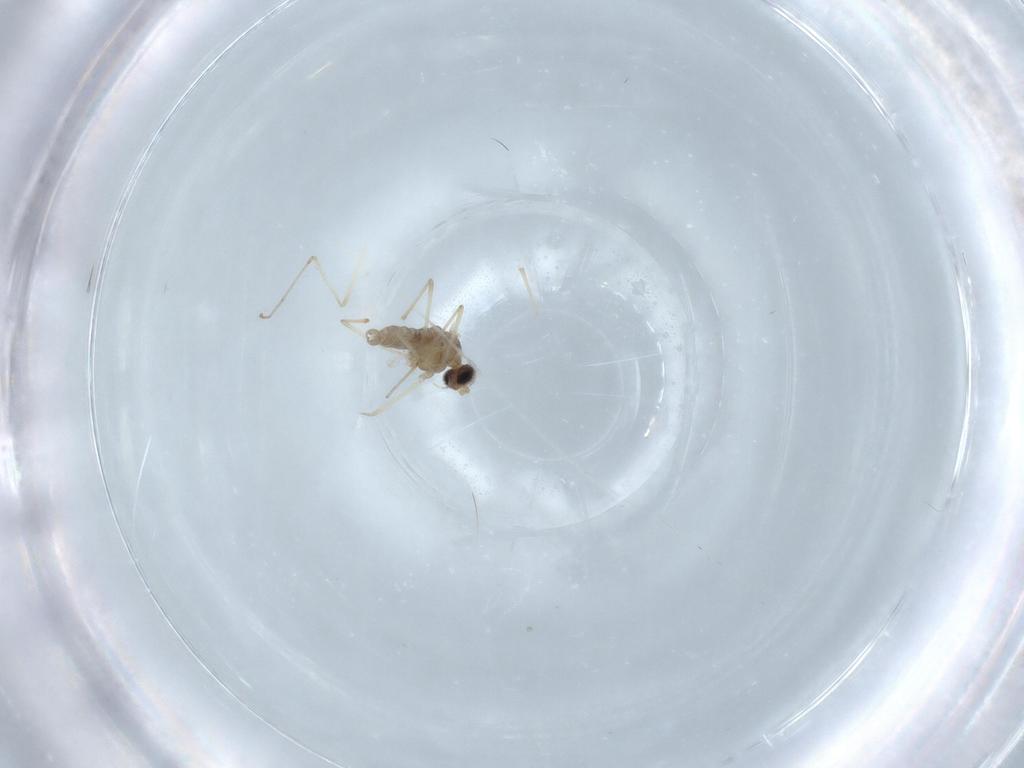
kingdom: Animalia
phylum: Arthropoda
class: Insecta
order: Diptera
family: Cecidomyiidae
